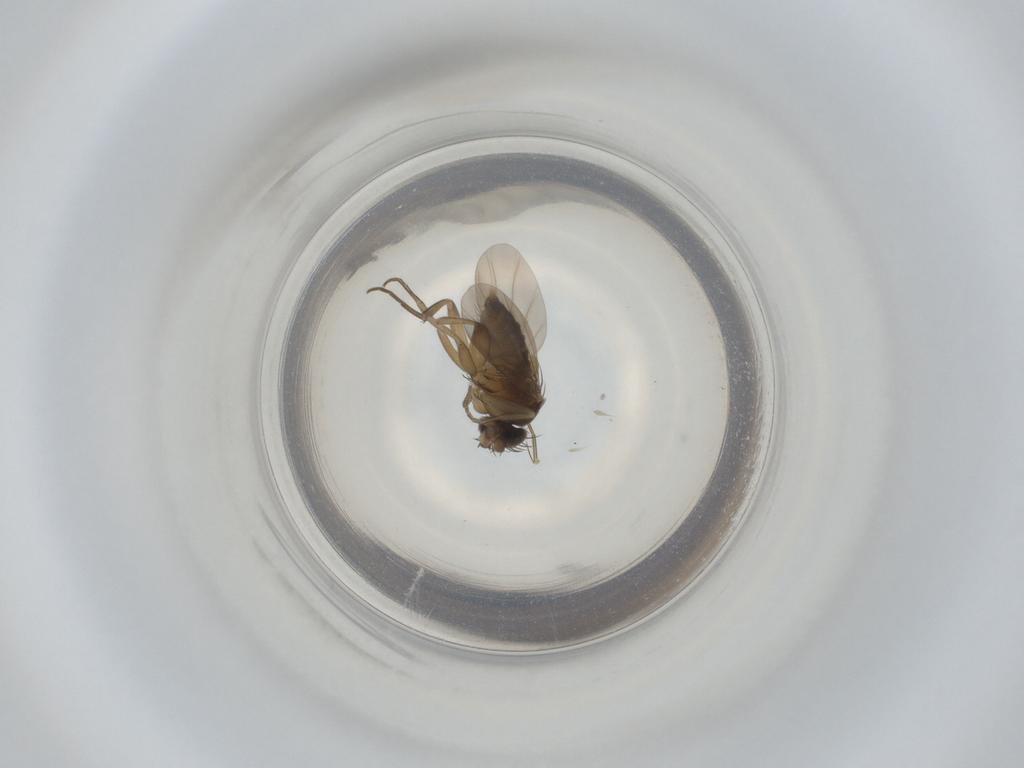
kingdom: Animalia
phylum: Arthropoda
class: Insecta
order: Diptera
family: Phoridae
